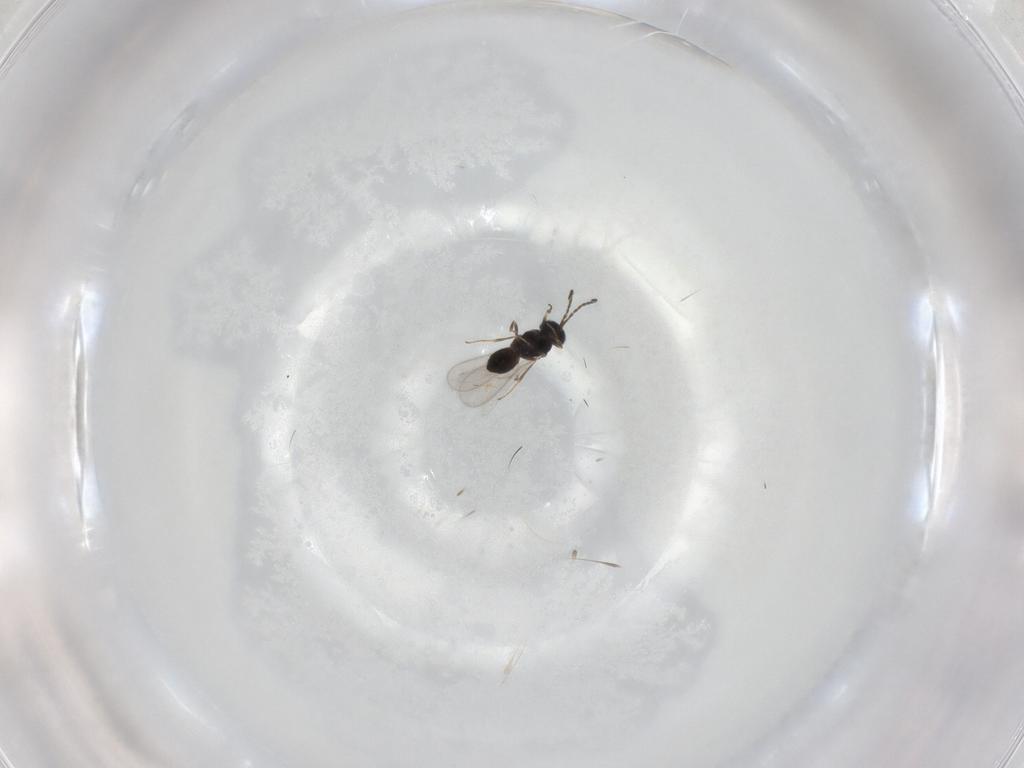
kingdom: Animalia
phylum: Arthropoda
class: Insecta
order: Hymenoptera
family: Scelionidae
